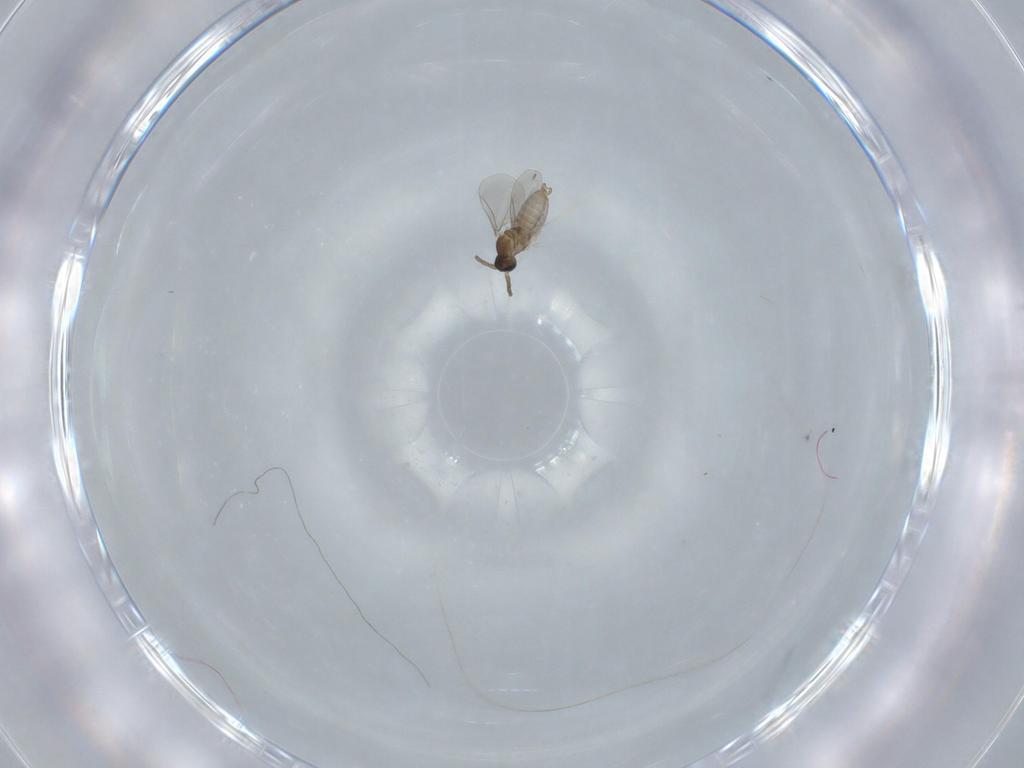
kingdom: Animalia
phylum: Arthropoda
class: Insecta
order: Diptera
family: Cecidomyiidae
